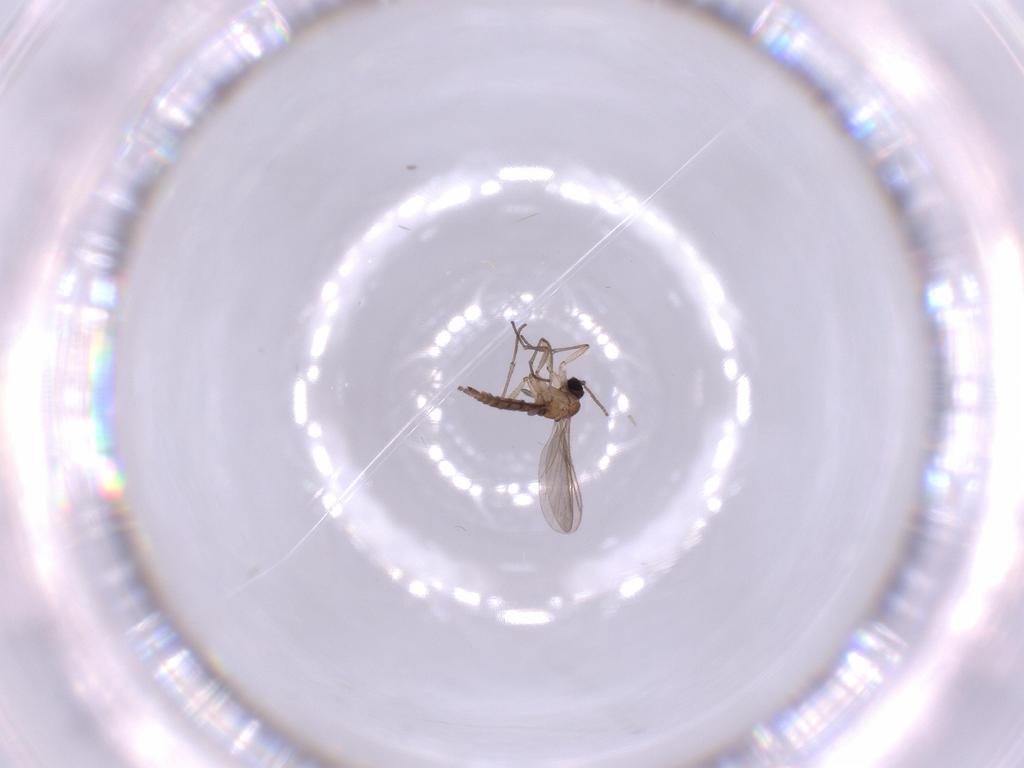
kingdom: Animalia
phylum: Arthropoda
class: Insecta
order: Diptera
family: Sciaridae
